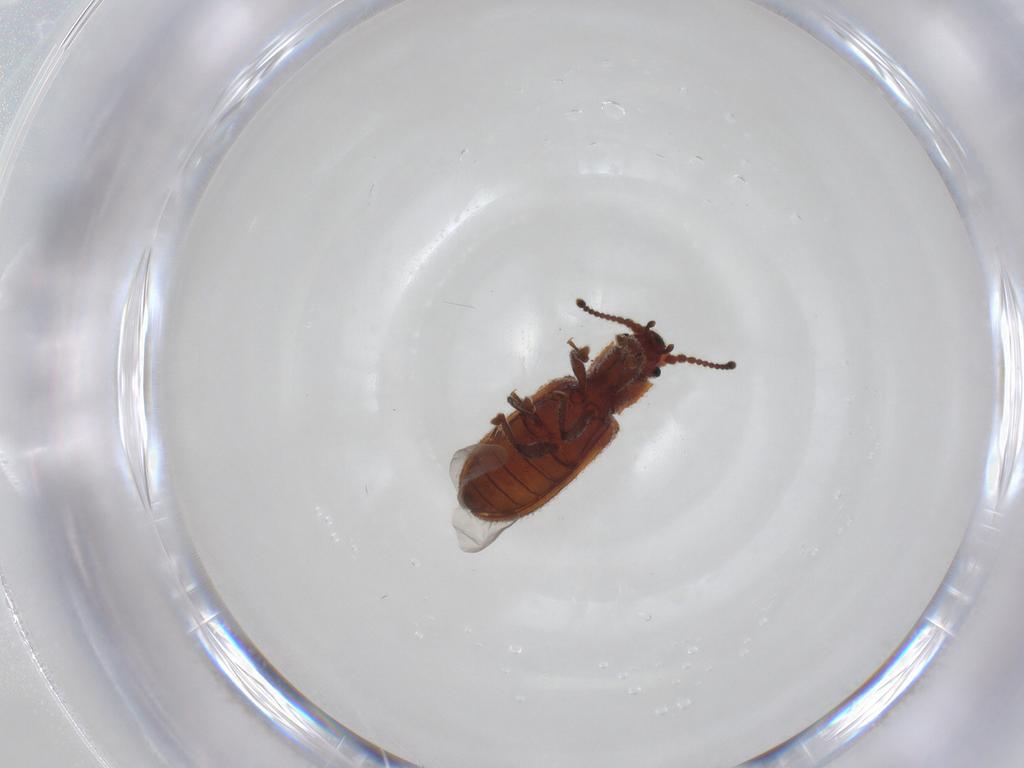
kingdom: Animalia
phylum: Arthropoda
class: Insecta
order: Coleoptera
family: Zopheridae
